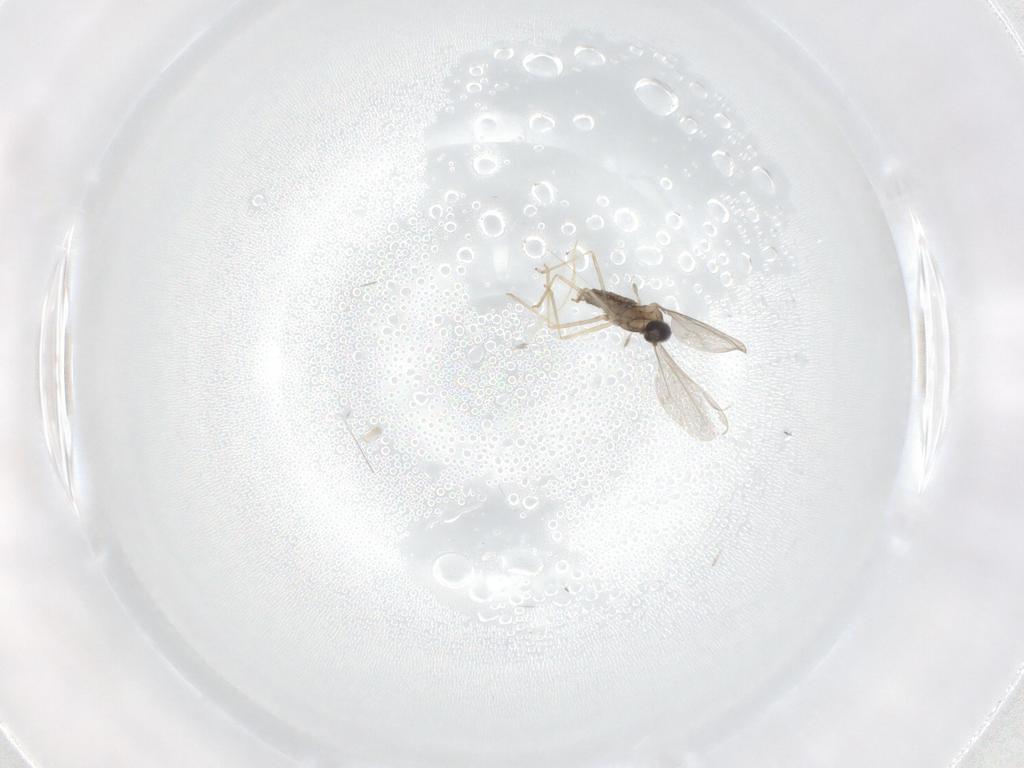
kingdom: Animalia
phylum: Arthropoda
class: Insecta
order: Diptera
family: Cecidomyiidae
